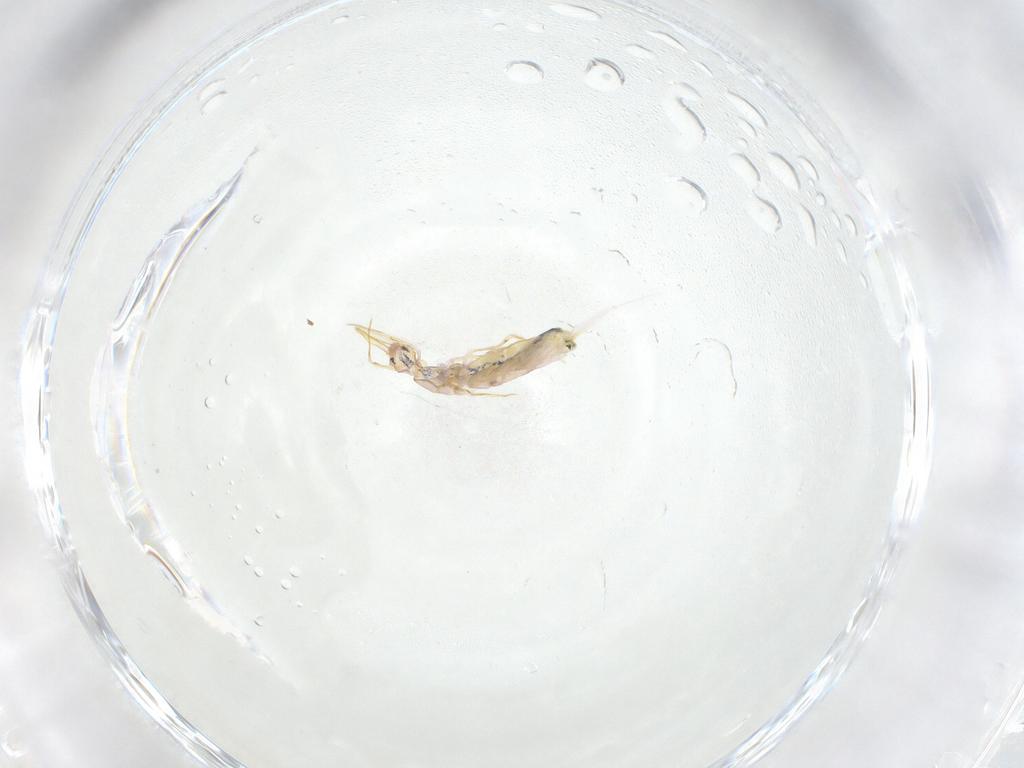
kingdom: Animalia
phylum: Arthropoda
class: Collembola
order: Entomobryomorpha
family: Entomobryidae
